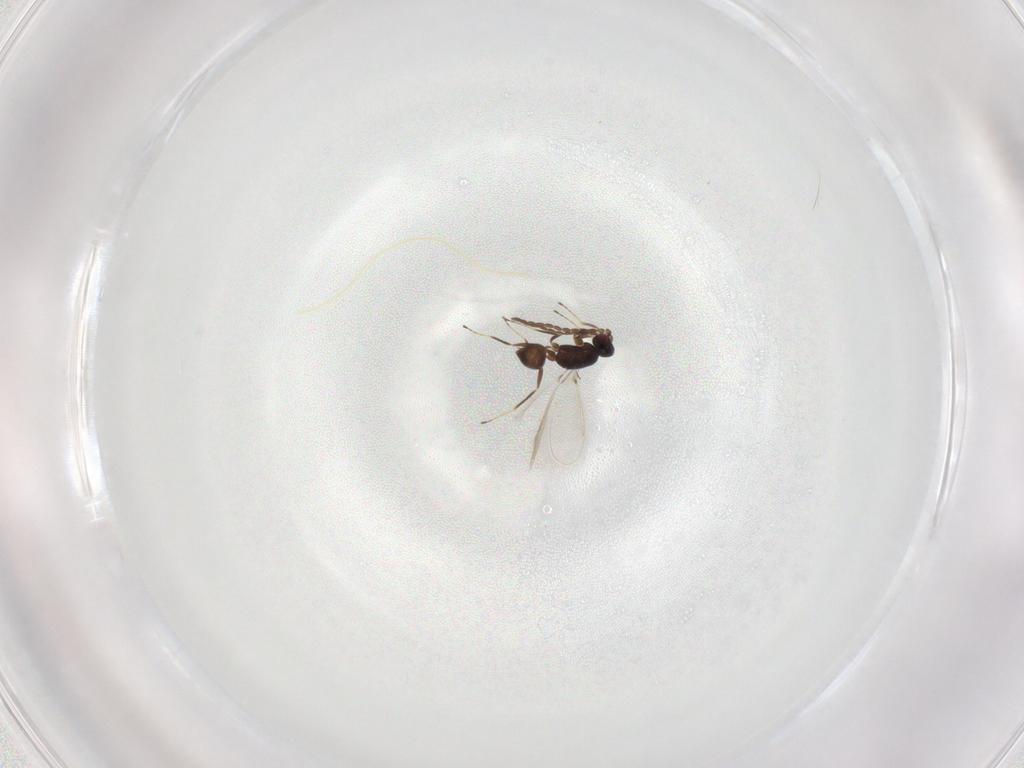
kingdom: Animalia
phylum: Arthropoda
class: Insecta
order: Hymenoptera
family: Mymaridae
